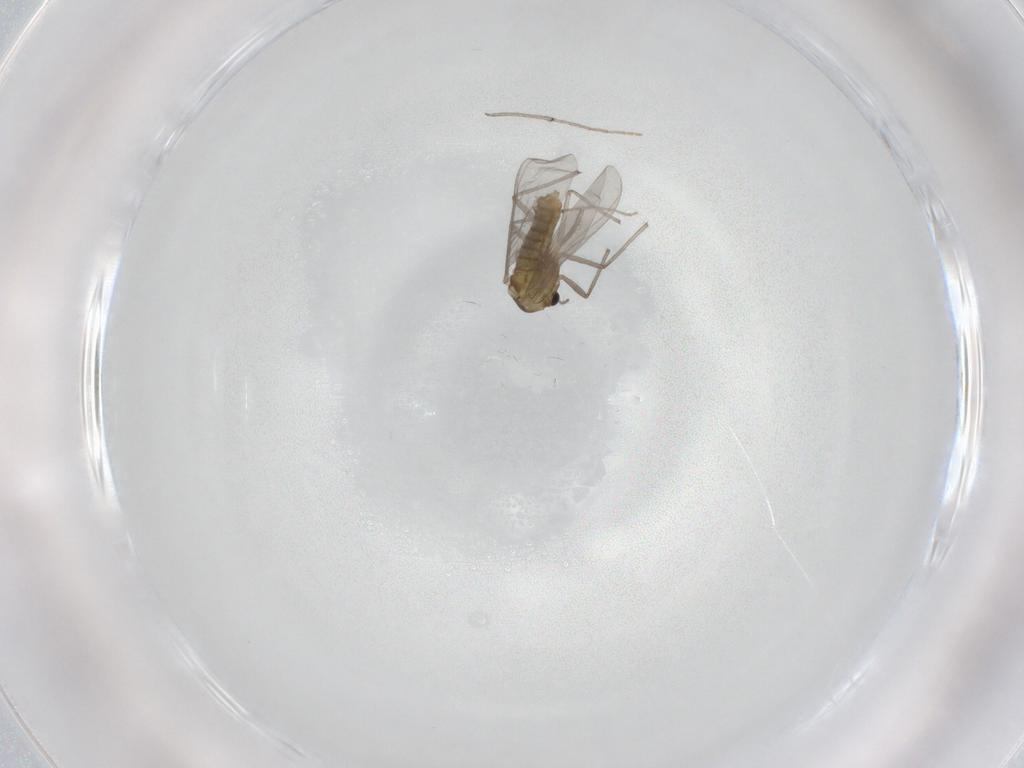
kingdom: Animalia
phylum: Arthropoda
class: Insecta
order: Diptera
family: Chironomidae
